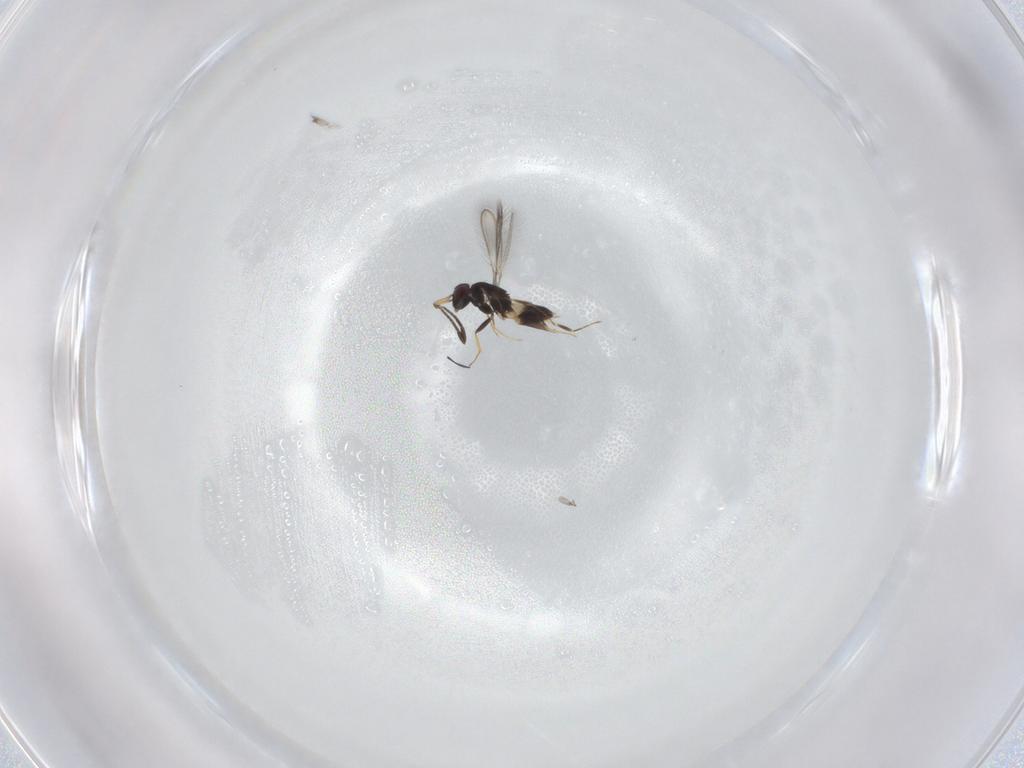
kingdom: Animalia
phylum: Arthropoda
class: Insecta
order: Hymenoptera
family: Mymaridae
